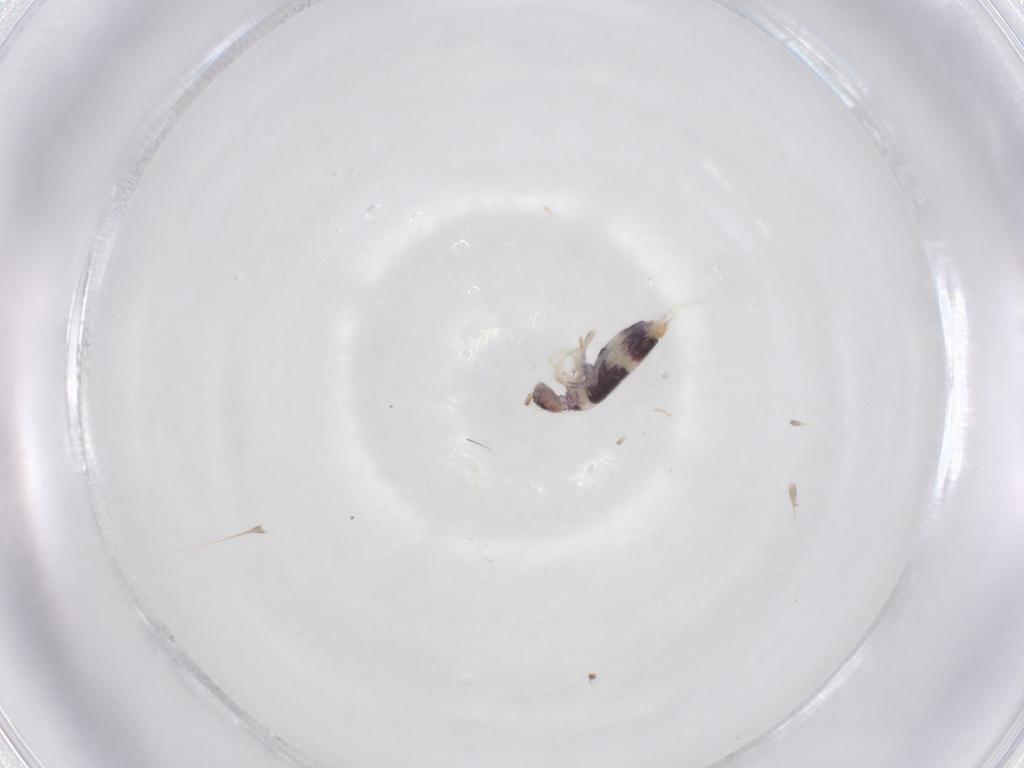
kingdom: Animalia
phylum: Arthropoda
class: Collembola
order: Entomobryomorpha
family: Entomobryidae
